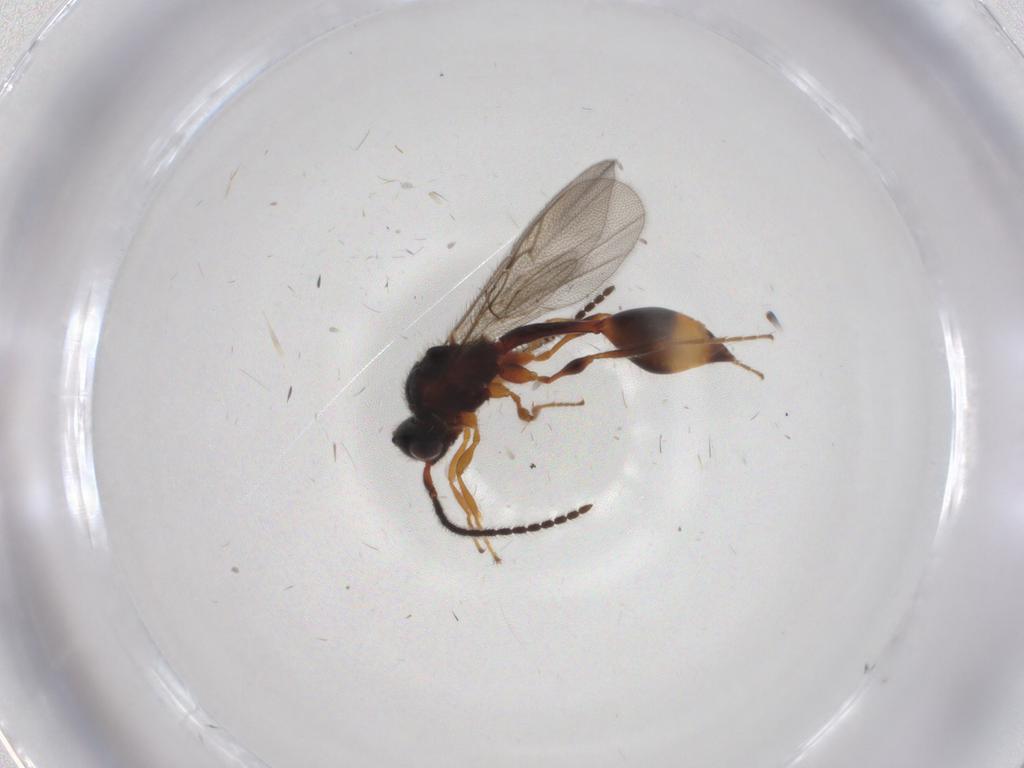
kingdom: Animalia
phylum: Arthropoda
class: Insecta
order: Hymenoptera
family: Diapriidae
